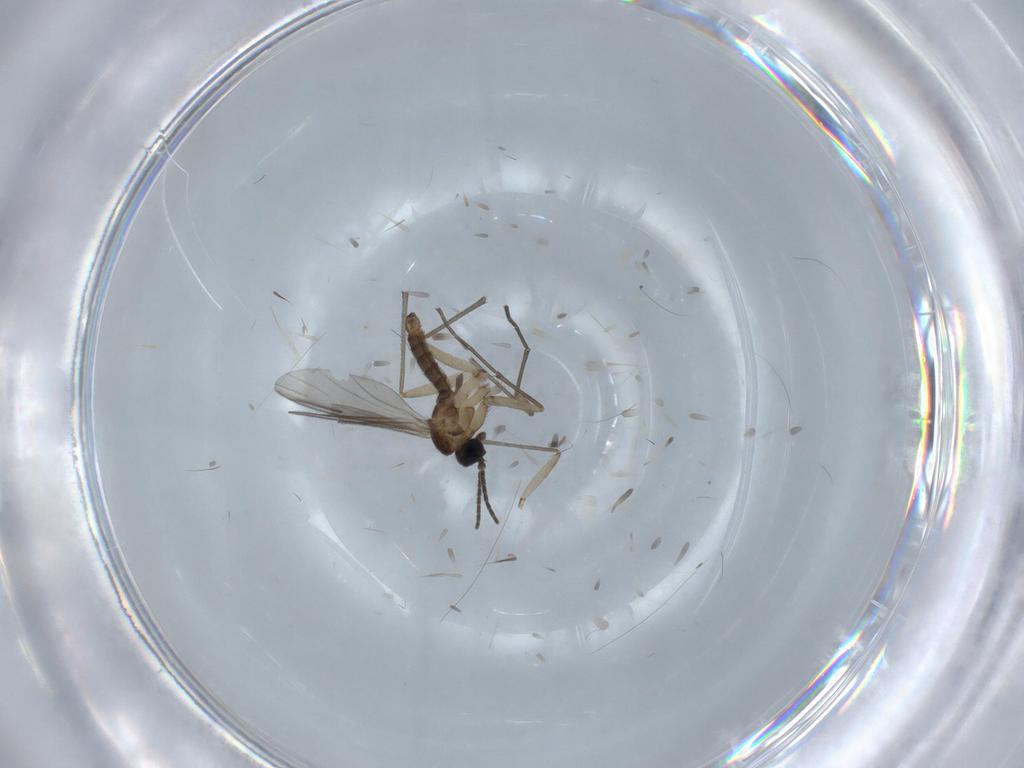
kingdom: Animalia
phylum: Arthropoda
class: Insecta
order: Diptera
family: Sciaridae
